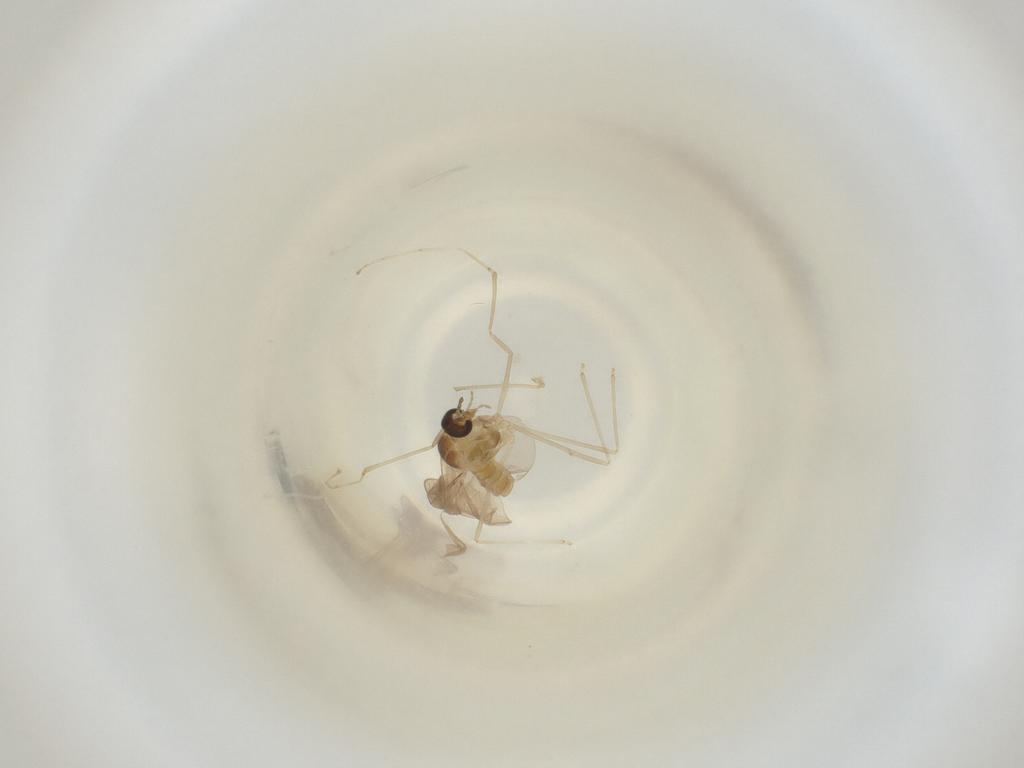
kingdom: Animalia
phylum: Arthropoda
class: Insecta
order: Diptera
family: Cecidomyiidae
